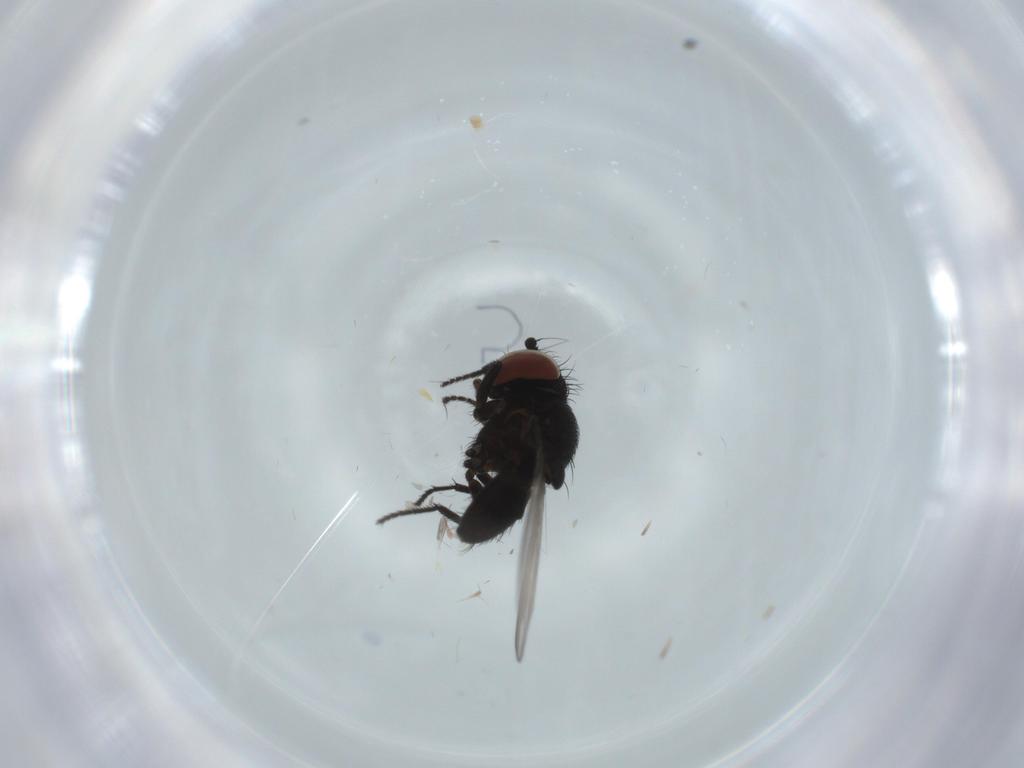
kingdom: Animalia
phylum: Arthropoda
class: Insecta
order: Diptera
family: Milichiidae
